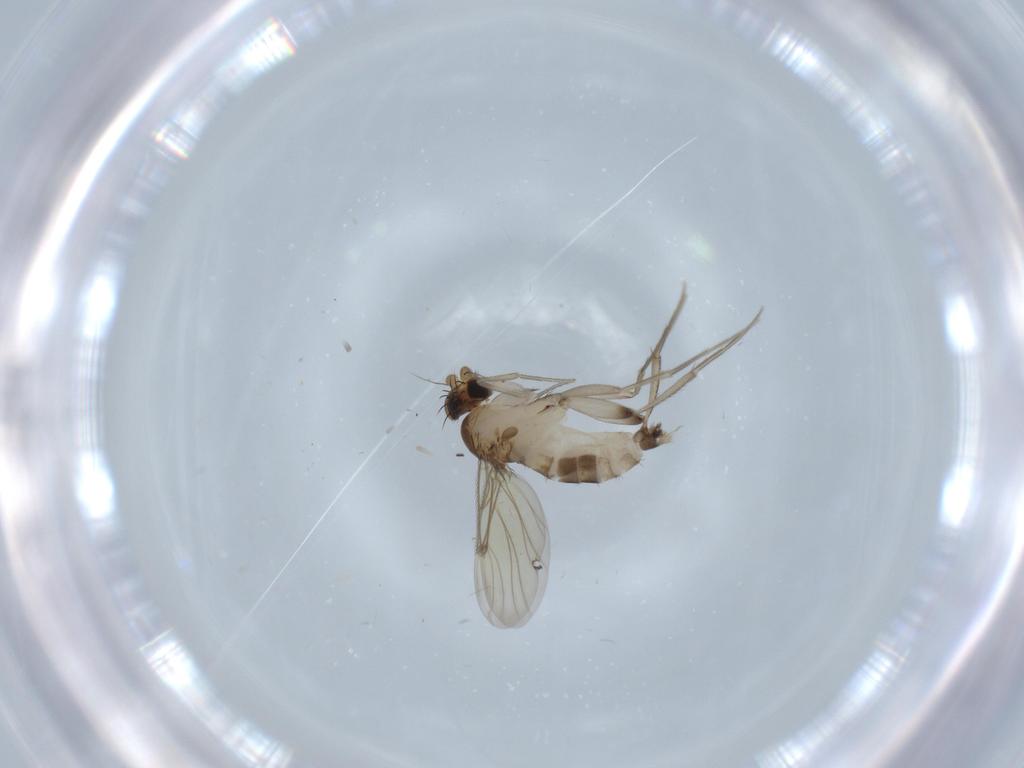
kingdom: Animalia
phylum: Arthropoda
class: Insecta
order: Diptera
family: Phoridae
